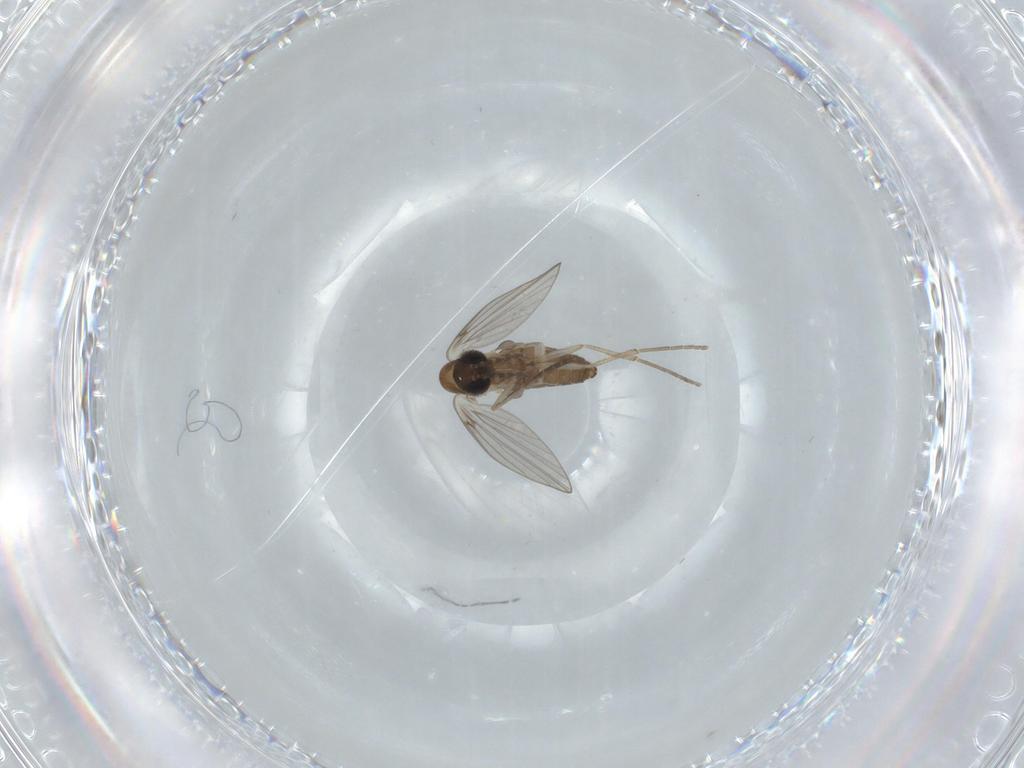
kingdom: Animalia
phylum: Arthropoda
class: Insecta
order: Diptera
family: Psychodidae
